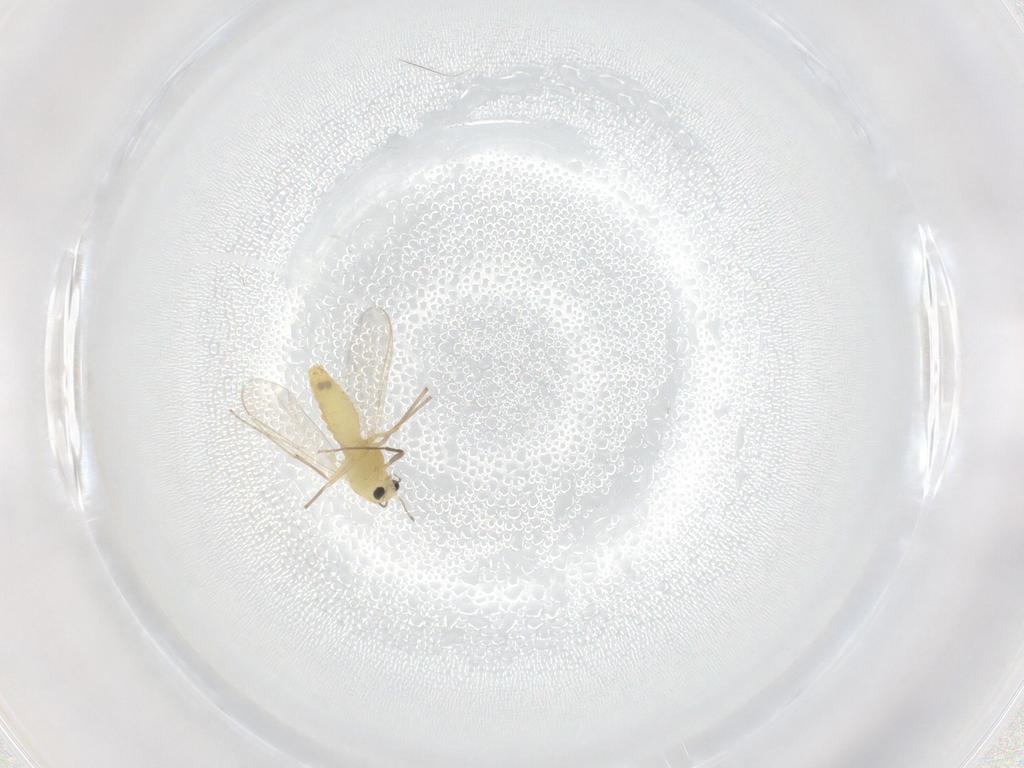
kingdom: Animalia
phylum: Arthropoda
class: Insecta
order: Diptera
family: Chironomidae
